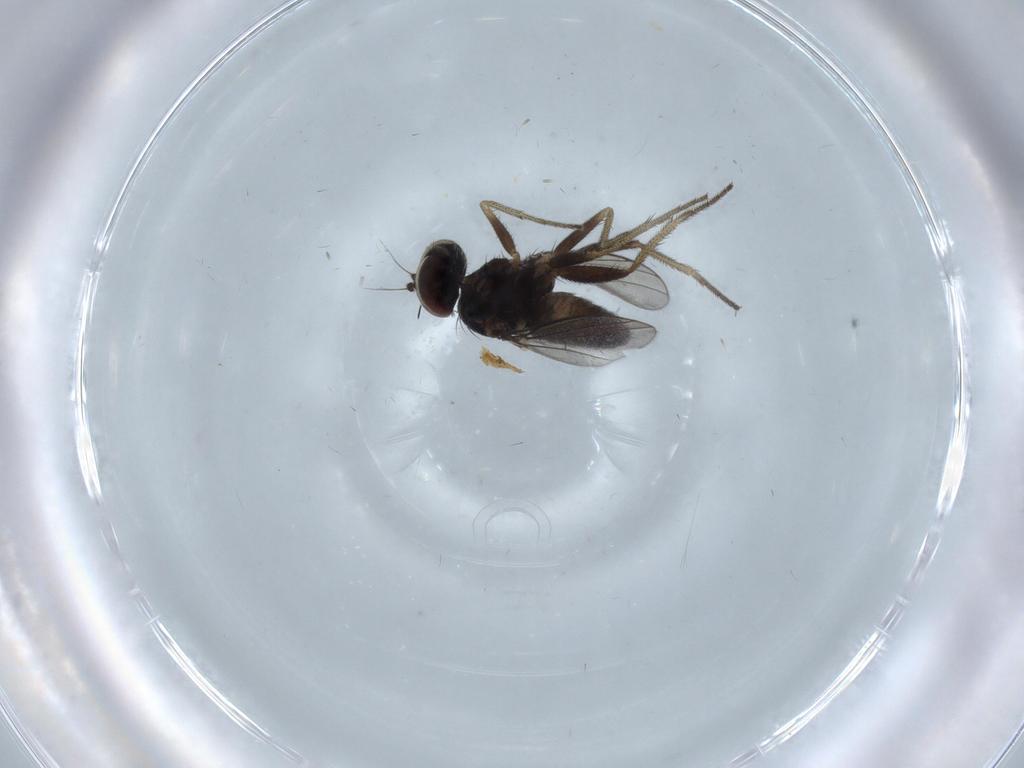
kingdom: Animalia
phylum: Arthropoda
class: Insecta
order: Diptera
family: Dolichopodidae
